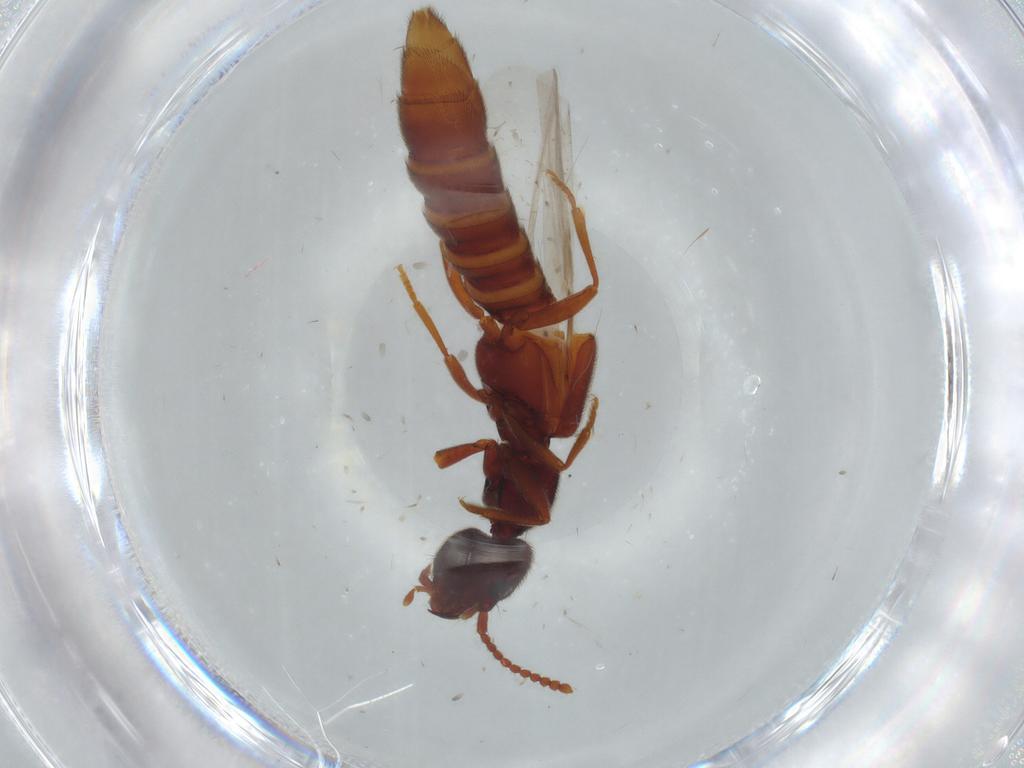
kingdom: Animalia
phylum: Arthropoda
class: Insecta
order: Coleoptera
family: Staphylinidae
